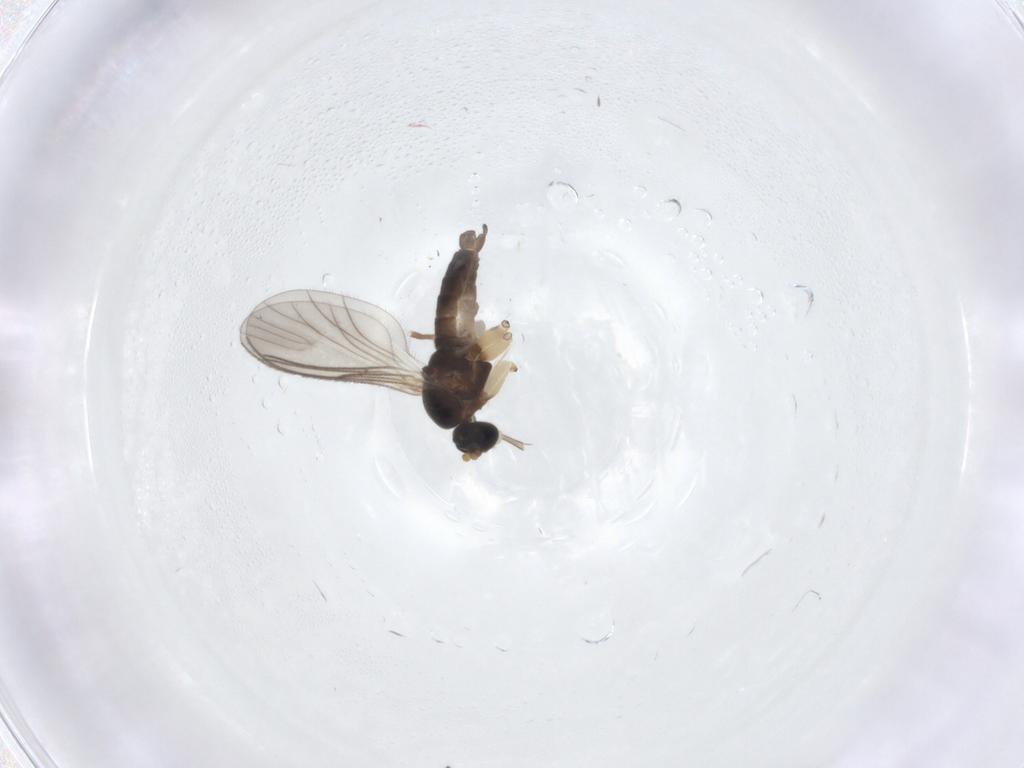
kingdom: Animalia
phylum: Arthropoda
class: Insecta
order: Diptera
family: Sciaridae
